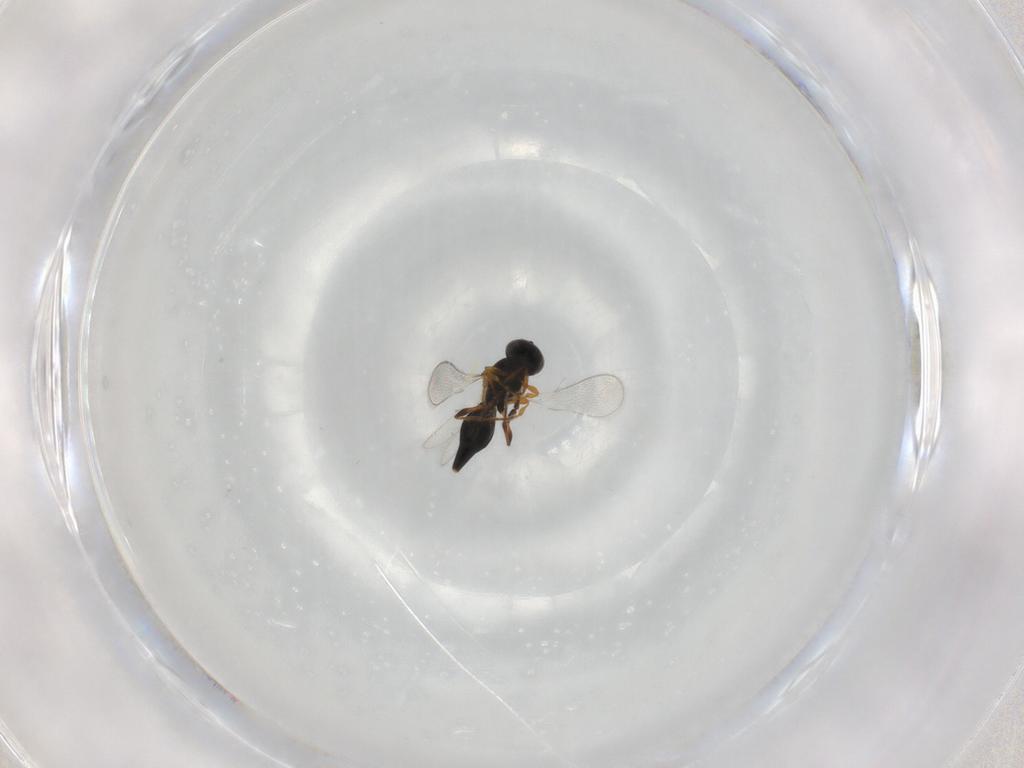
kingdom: Animalia
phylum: Arthropoda
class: Insecta
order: Hymenoptera
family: Platygastridae
